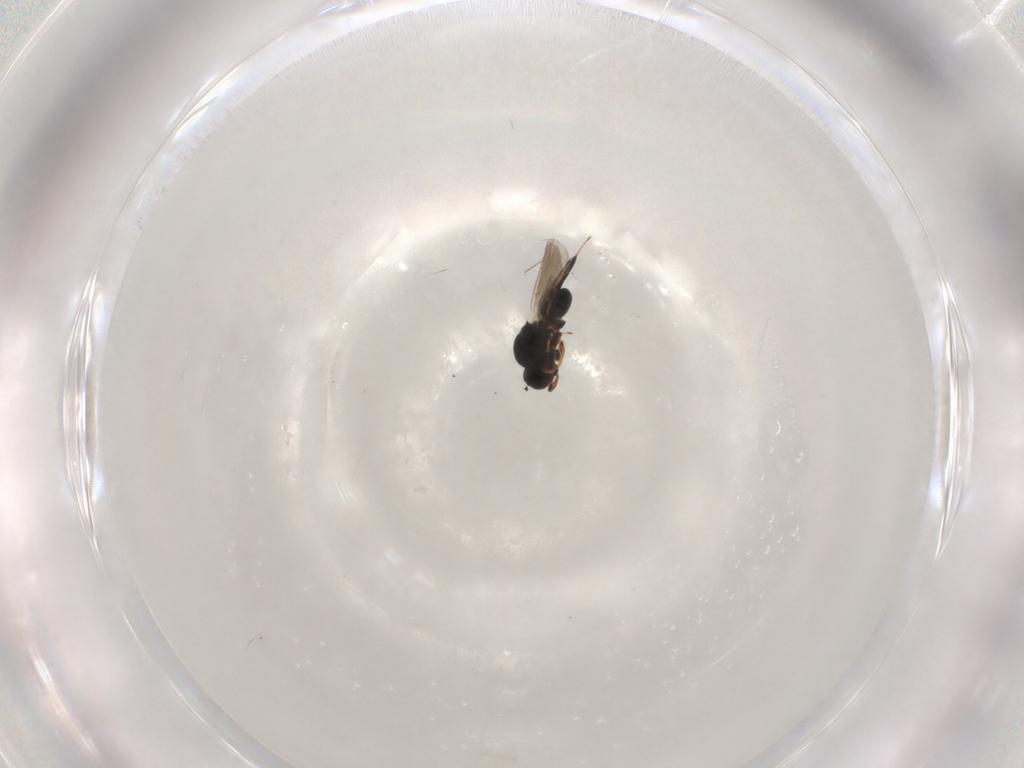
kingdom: Animalia
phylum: Arthropoda
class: Insecta
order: Hymenoptera
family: Platygastridae
